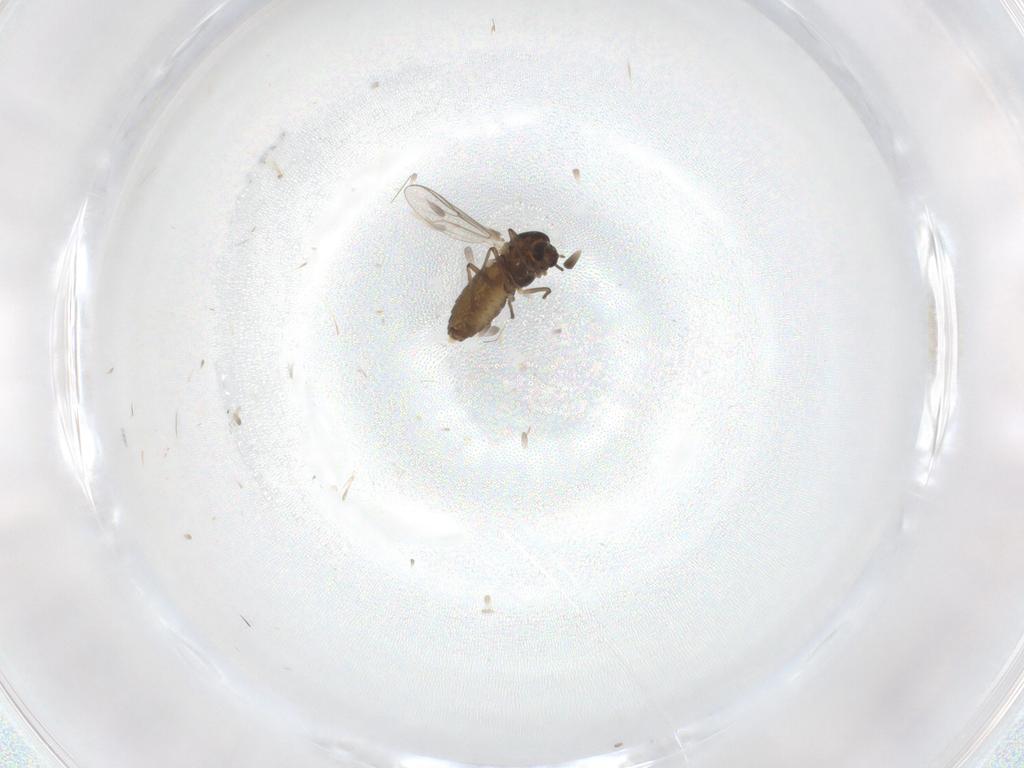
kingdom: Animalia
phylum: Arthropoda
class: Insecta
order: Diptera
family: Chironomidae
